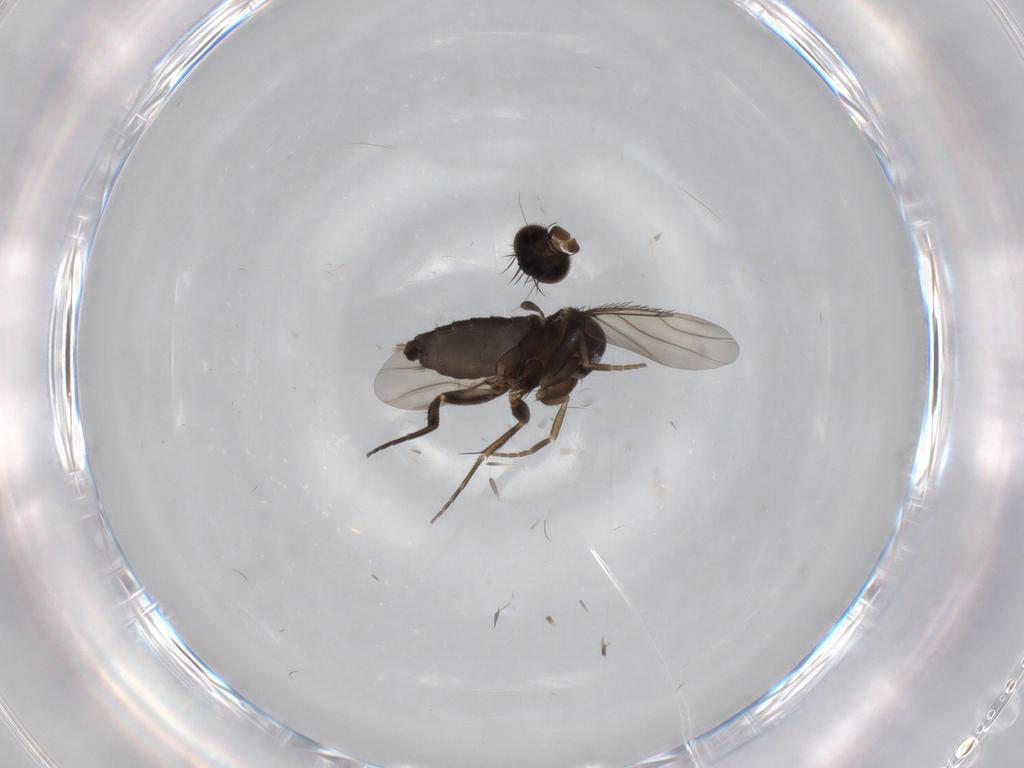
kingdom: Animalia
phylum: Arthropoda
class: Insecta
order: Diptera
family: Phoridae
